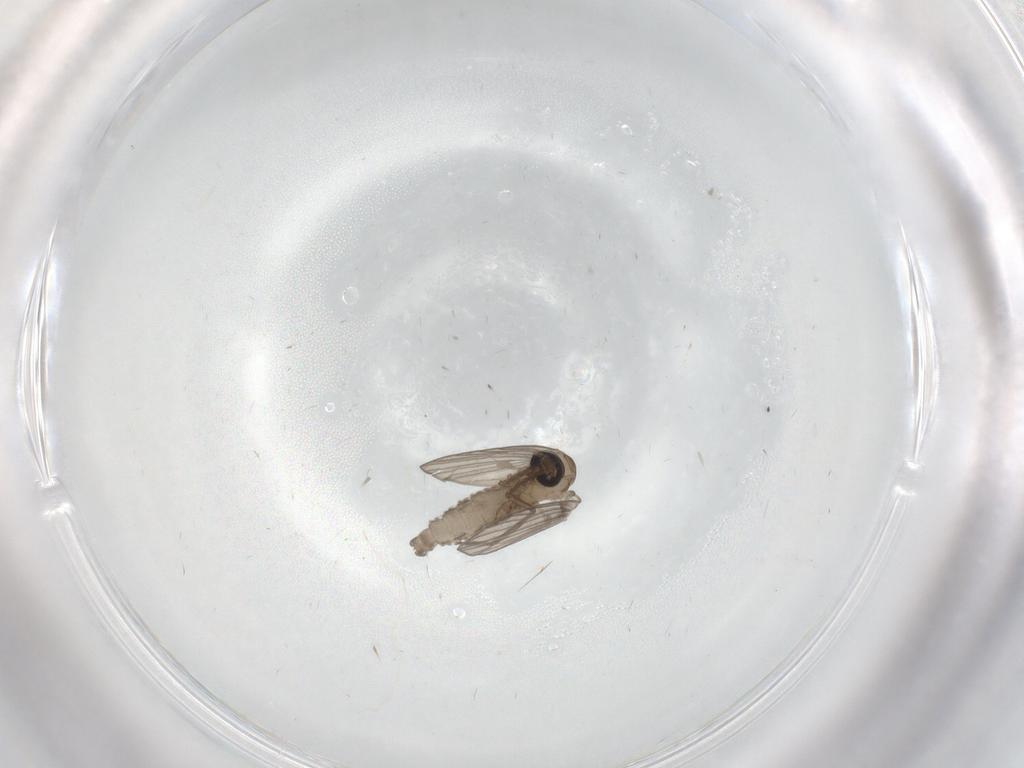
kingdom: Animalia
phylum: Arthropoda
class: Insecta
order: Diptera
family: Psychodidae
